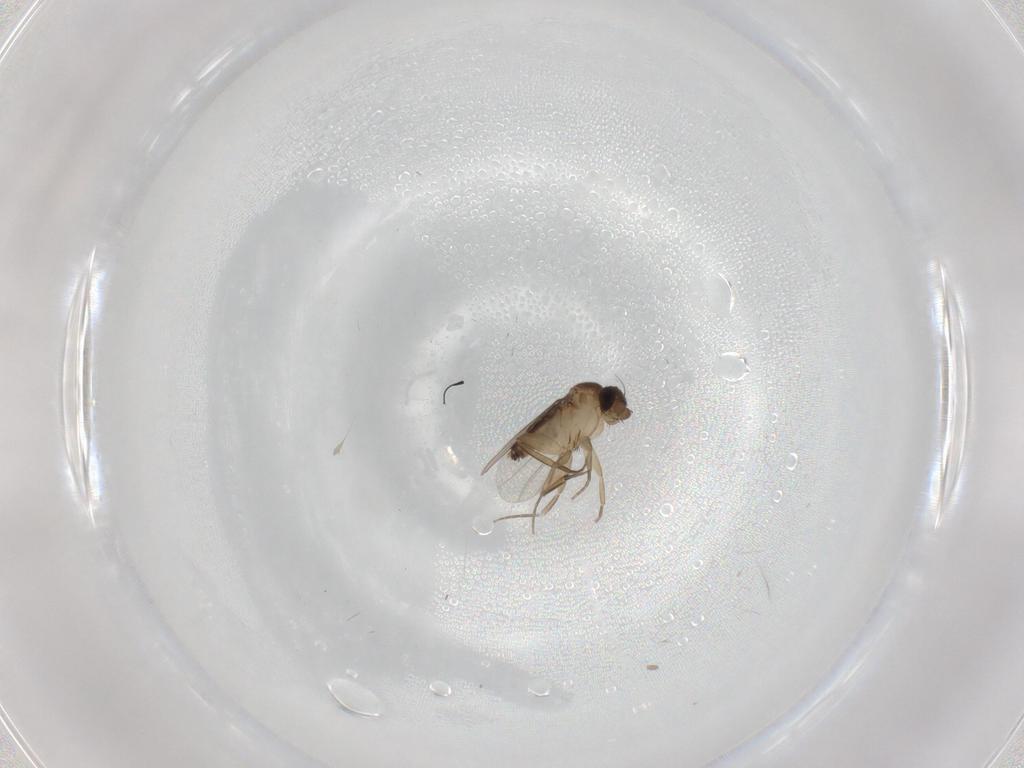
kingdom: Animalia
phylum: Arthropoda
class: Insecta
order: Diptera
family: Phoridae
